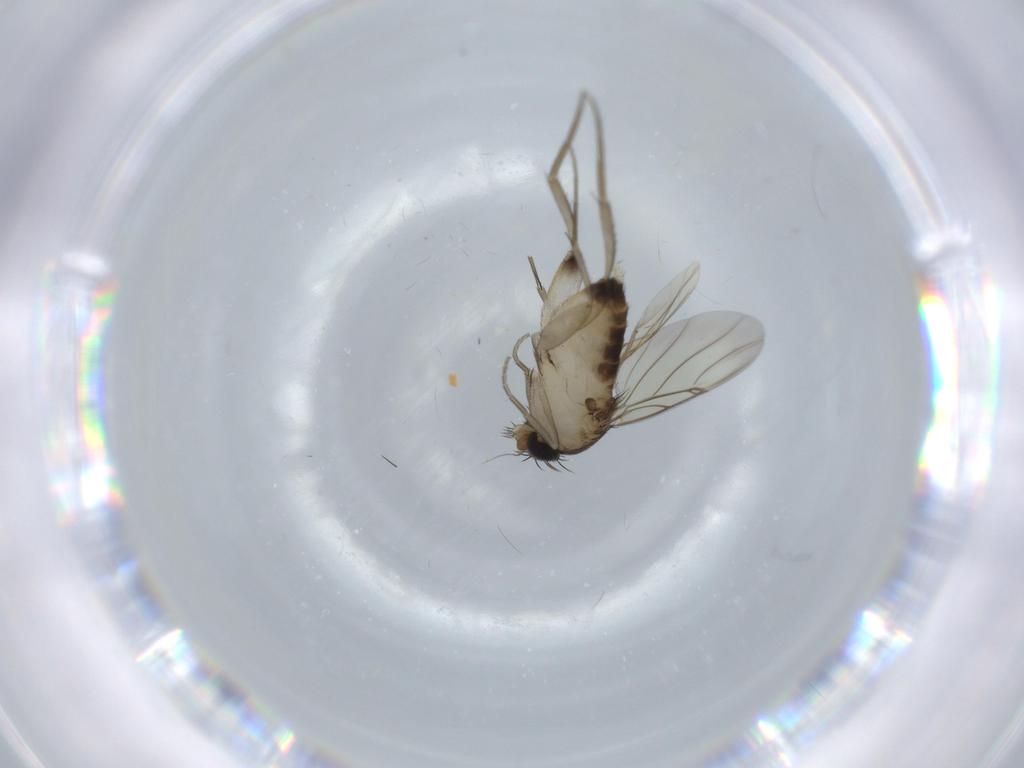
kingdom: Animalia
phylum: Arthropoda
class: Insecta
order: Diptera
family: Phoridae
